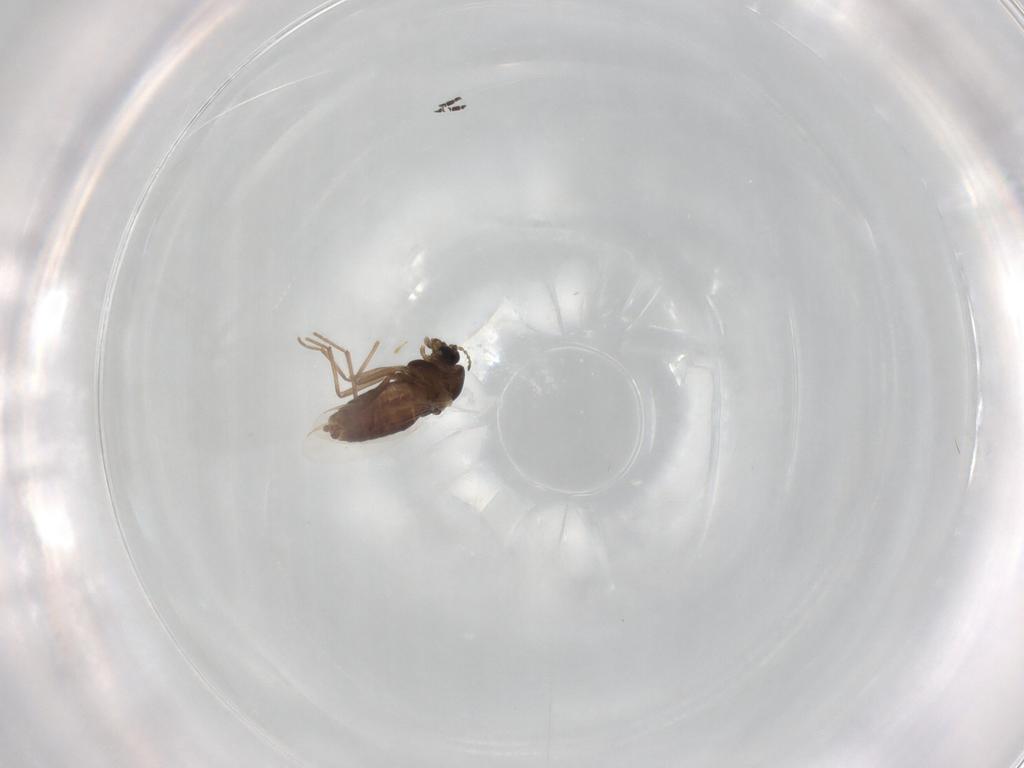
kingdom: Animalia
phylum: Arthropoda
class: Insecta
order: Diptera
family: Chironomidae
